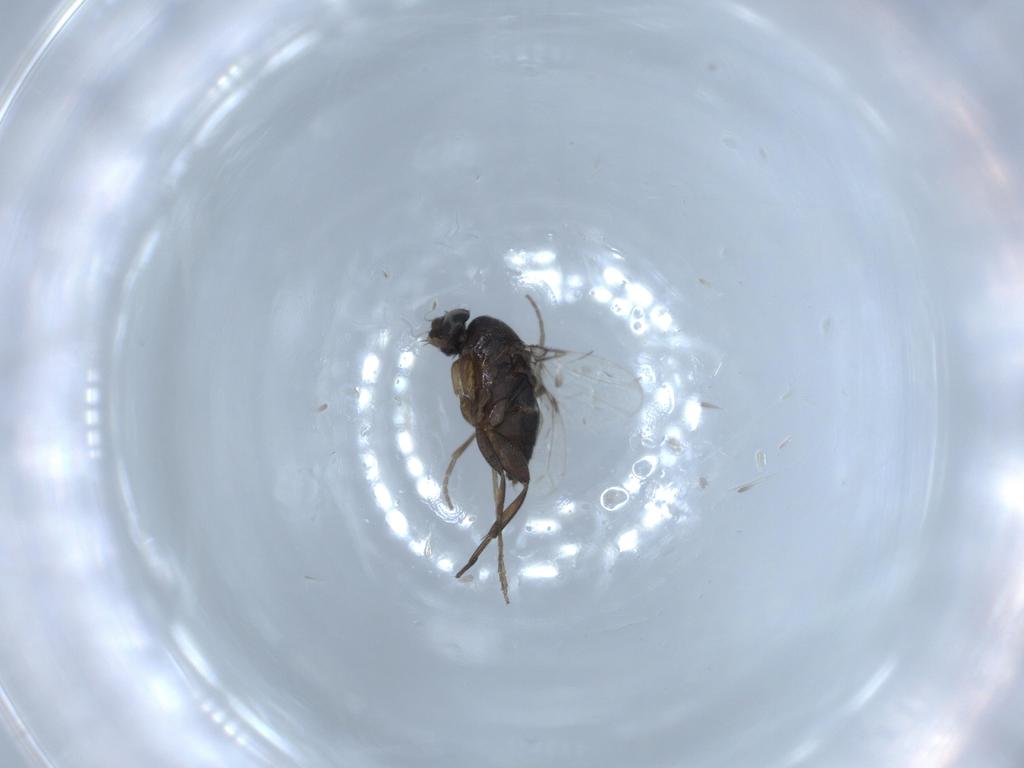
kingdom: Animalia
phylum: Arthropoda
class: Insecta
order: Diptera
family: Phoridae
